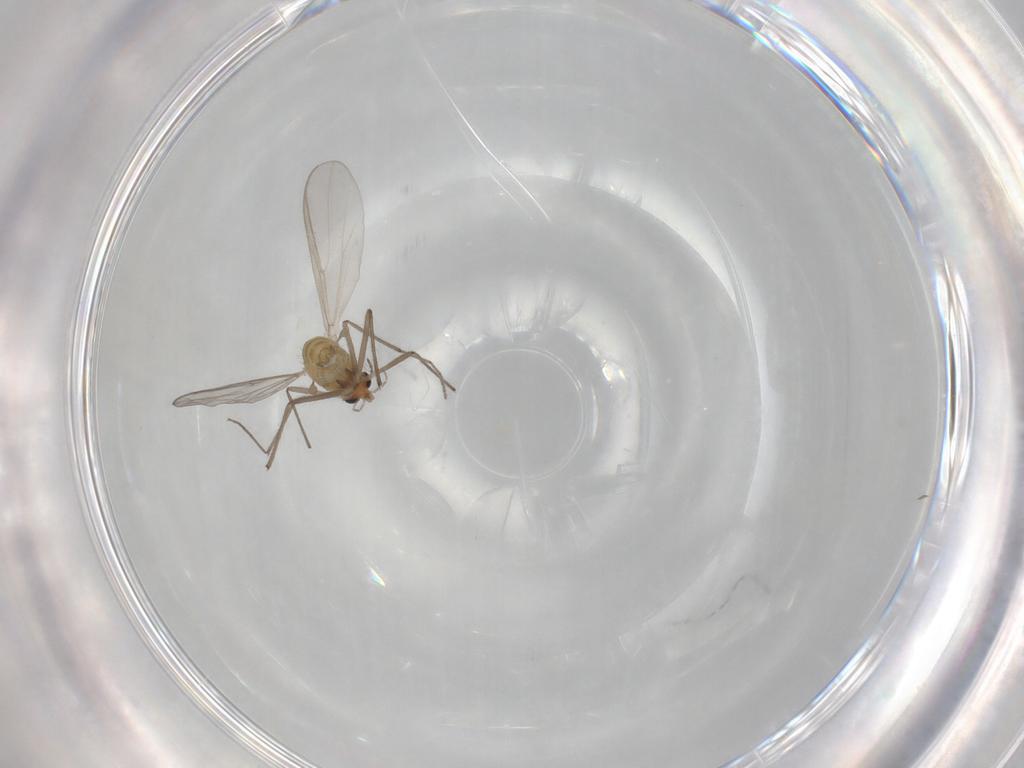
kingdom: Animalia
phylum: Arthropoda
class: Insecta
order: Diptera
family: Chironomidae
